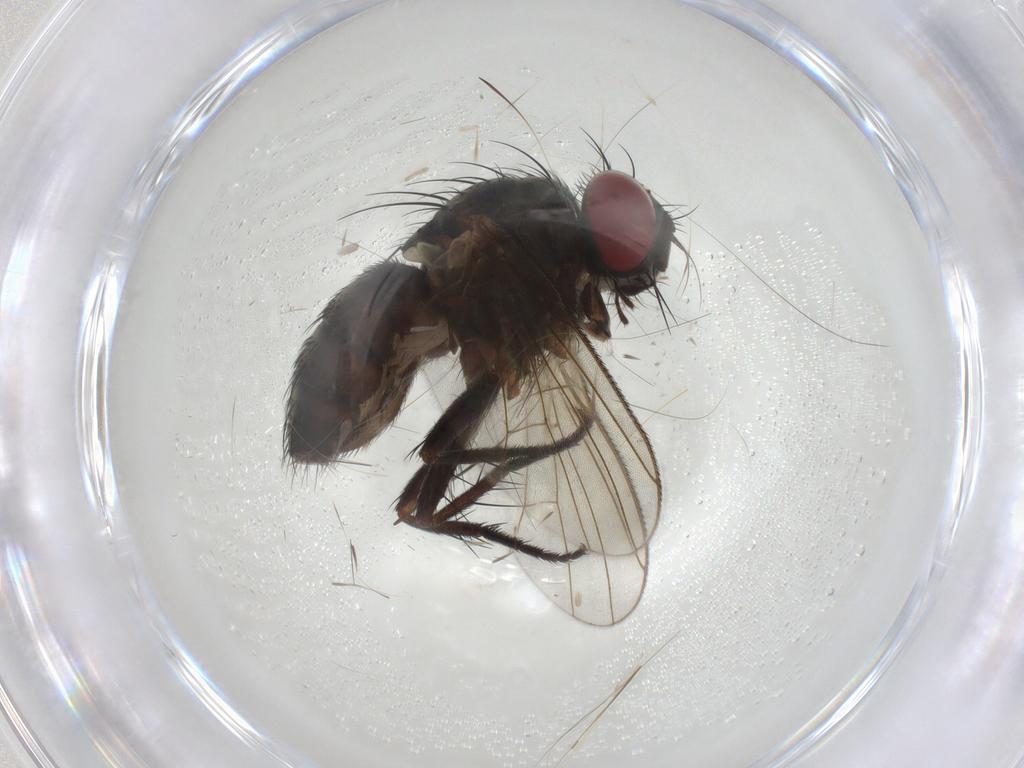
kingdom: Animalia
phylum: Arthropoda
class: Insecta
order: Diptera
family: Muscidae
